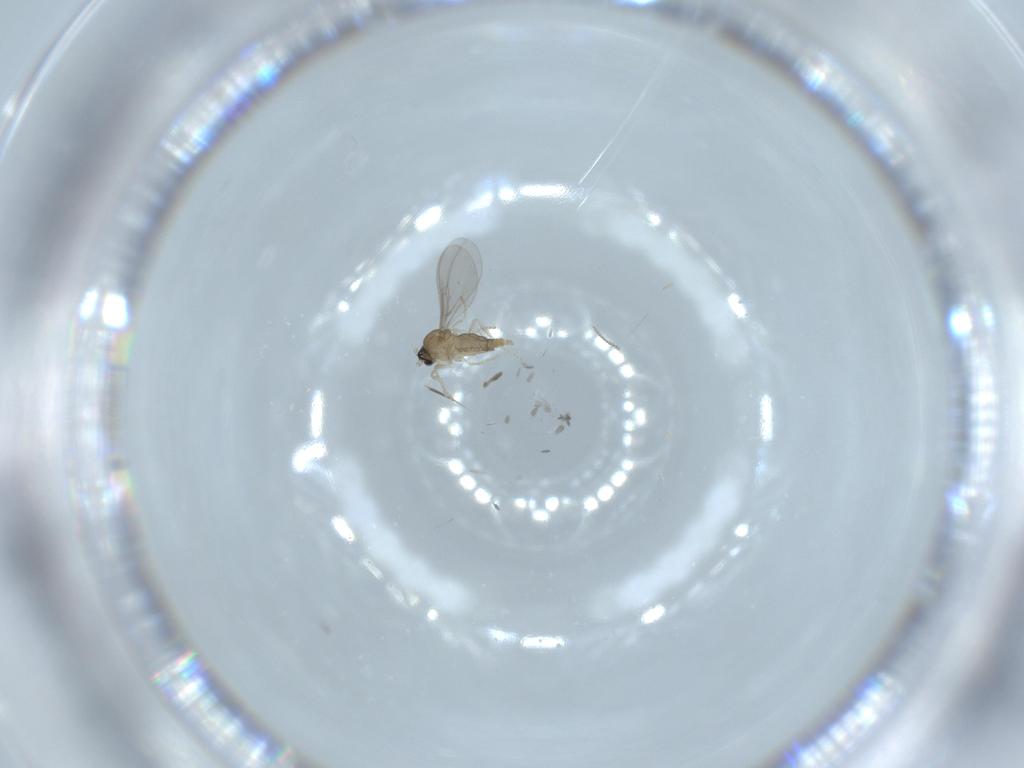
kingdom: Animalia
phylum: Arthropoda
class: Insecta
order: Diptera
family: Cecidomyiidae
